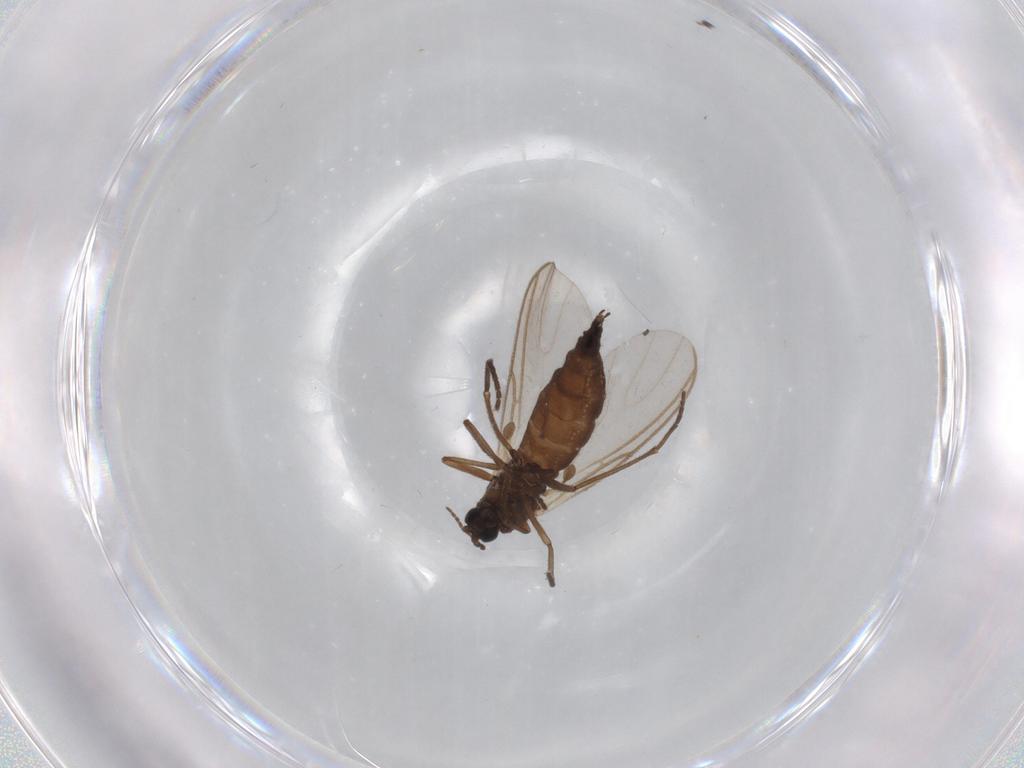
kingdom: Animalia
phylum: Arthropoda
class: Insecta
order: Diptera
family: Sciaridae
